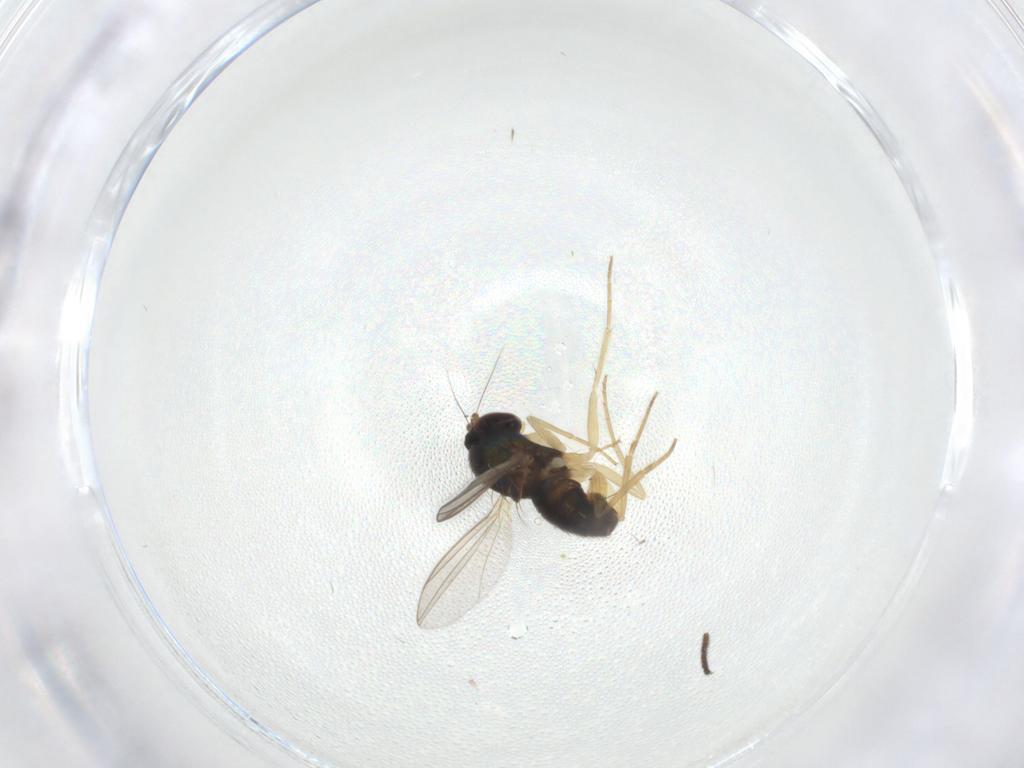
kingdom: Animalia
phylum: Arthropoda
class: Insecta
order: Diptera
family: Dolichopodidae
